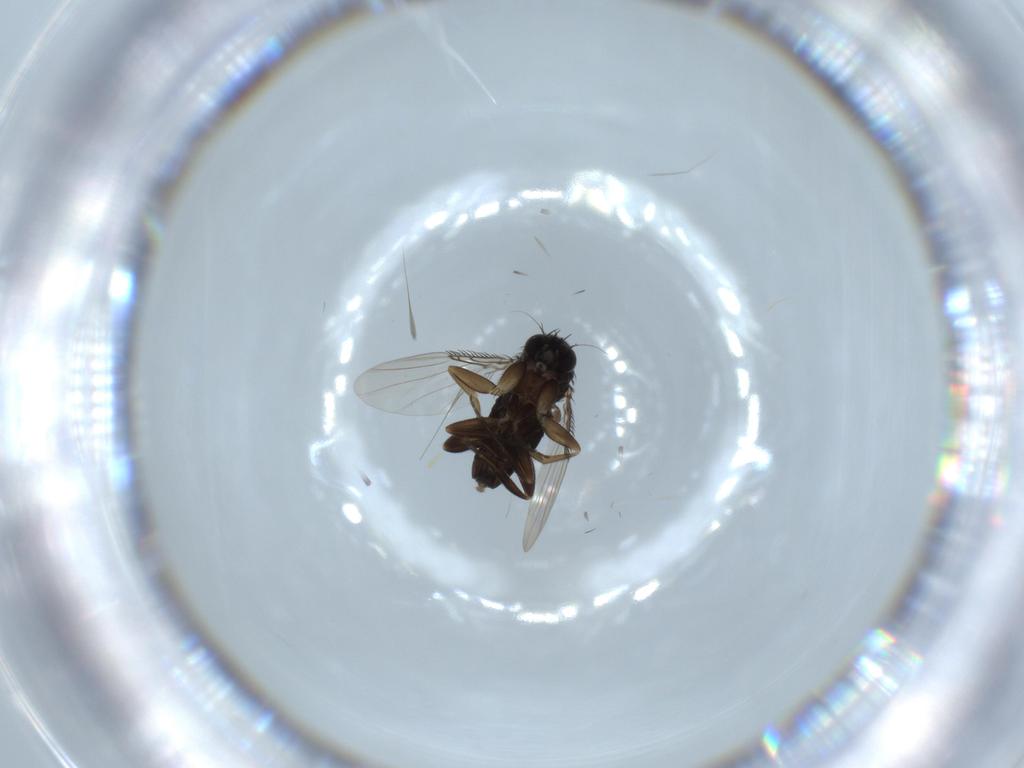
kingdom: Animalia
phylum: Arthropoda
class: Insecta
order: Diptera
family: Phoridae
